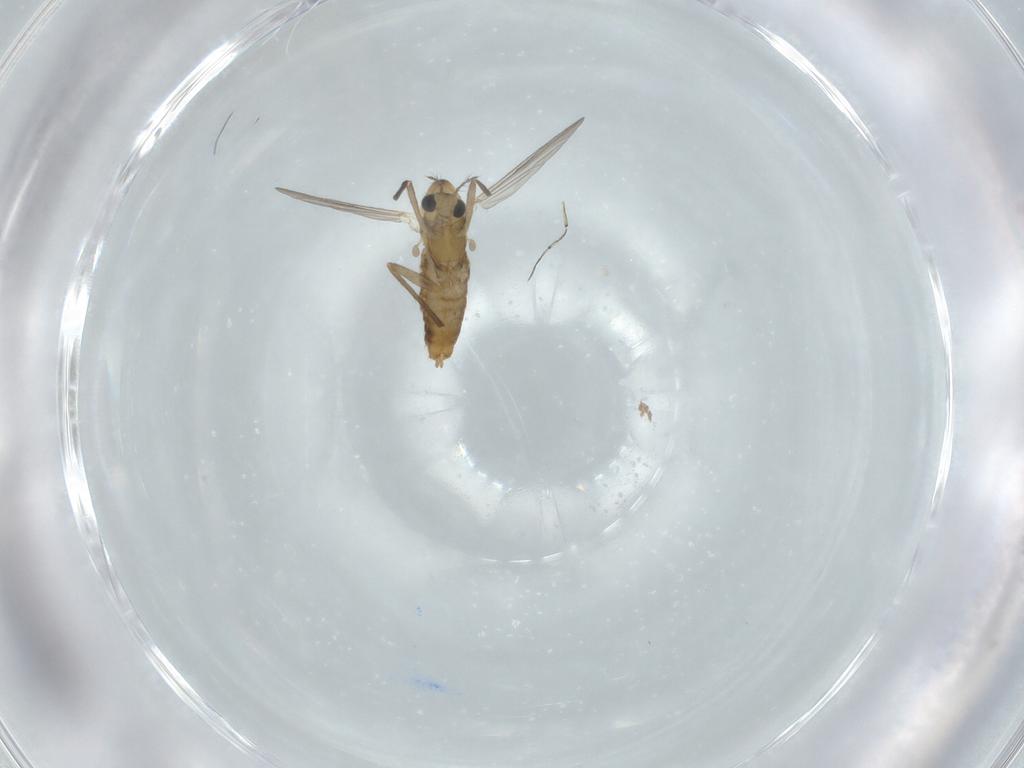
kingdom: Animalia
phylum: Arthropoda
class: Insecta
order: Diptera
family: Chironomidae
